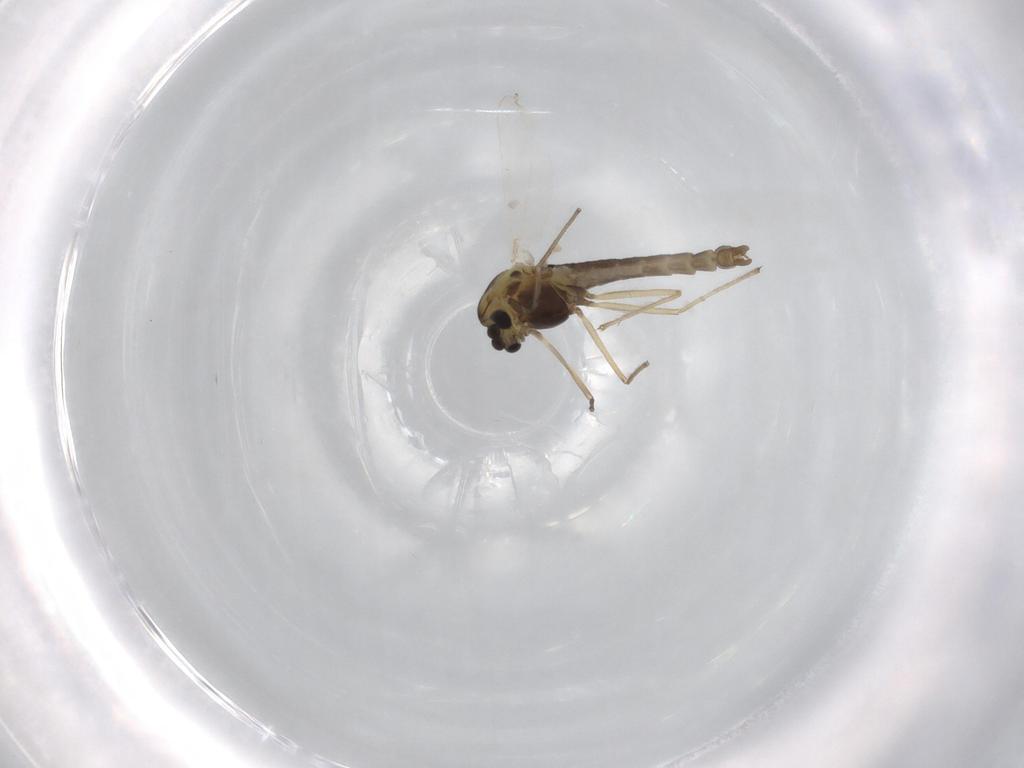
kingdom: Animalia
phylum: Arthropoda
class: Insecta
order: Diptera
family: Chironomidae
